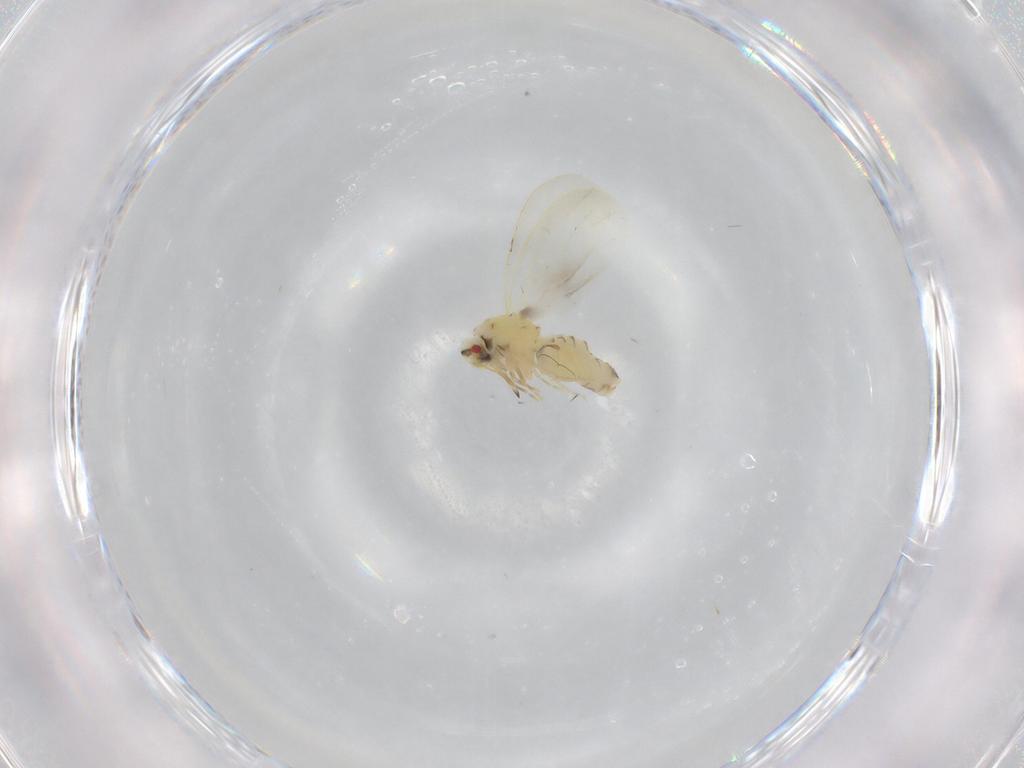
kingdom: Animalia
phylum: Arthropoda
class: Insecta
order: Hemiptera
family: Aleyrodidae
